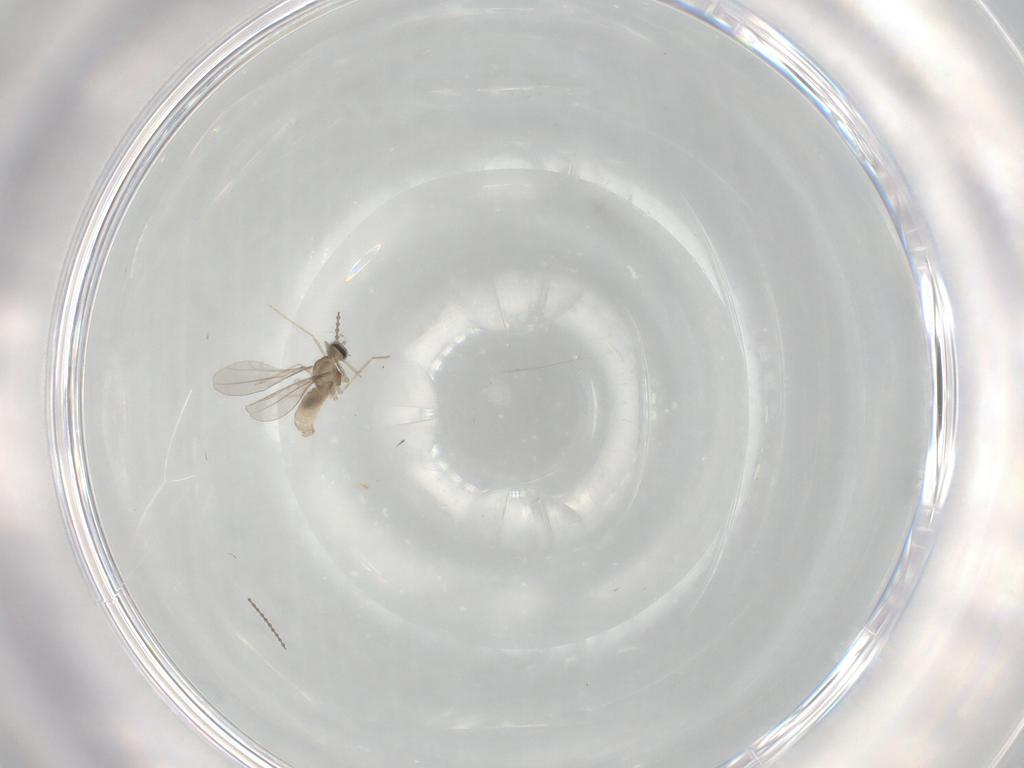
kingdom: Animalia
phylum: Arthropoda
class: Insecta
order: Diptera
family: Cecidomyiidae
